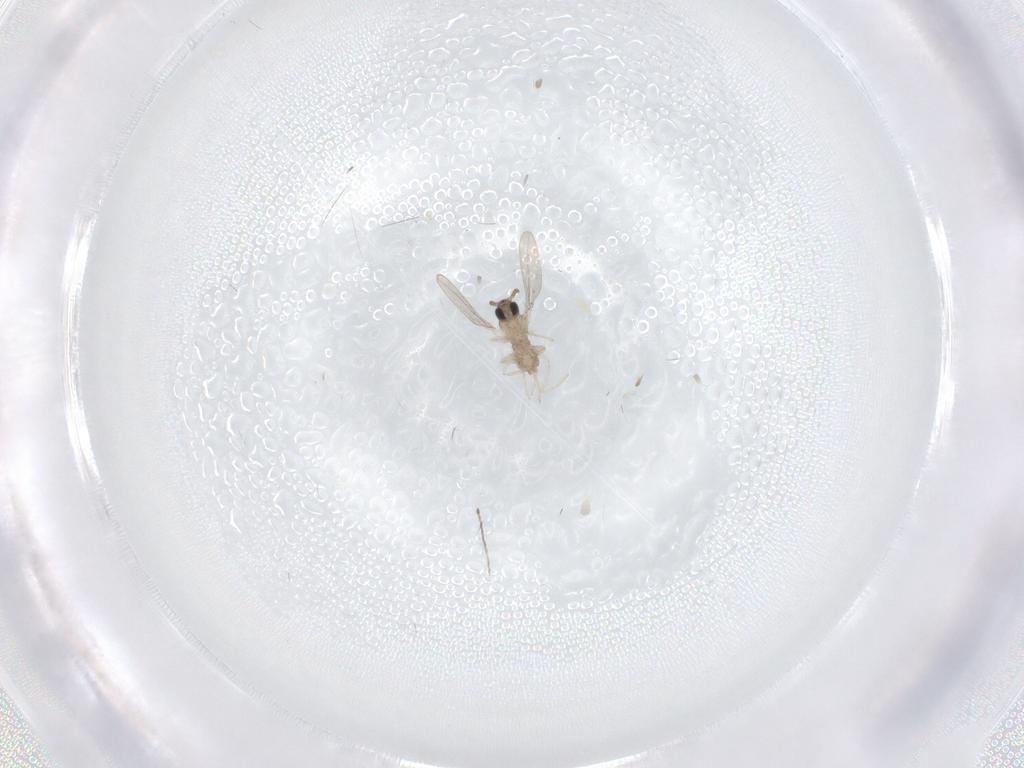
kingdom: Animalia
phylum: Arthropoda
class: Insecta
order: Diptera
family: Cecidomyiidae
